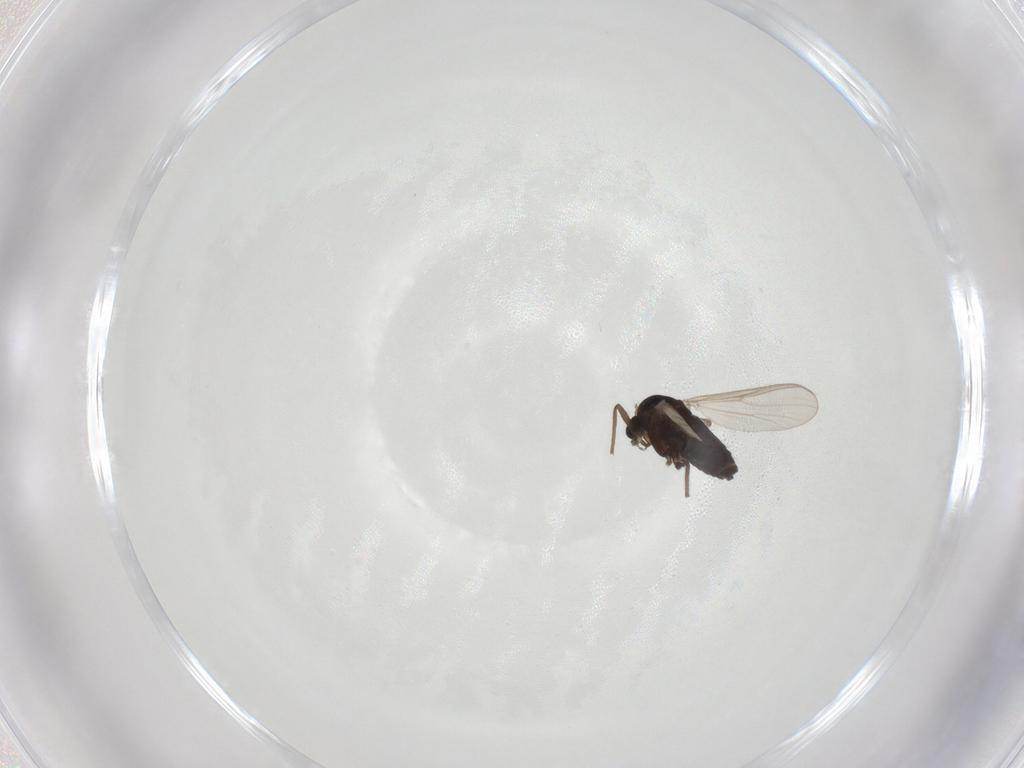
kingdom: Animalia
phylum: Arthropoda
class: Insecta
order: Diptera
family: Chironomidae
